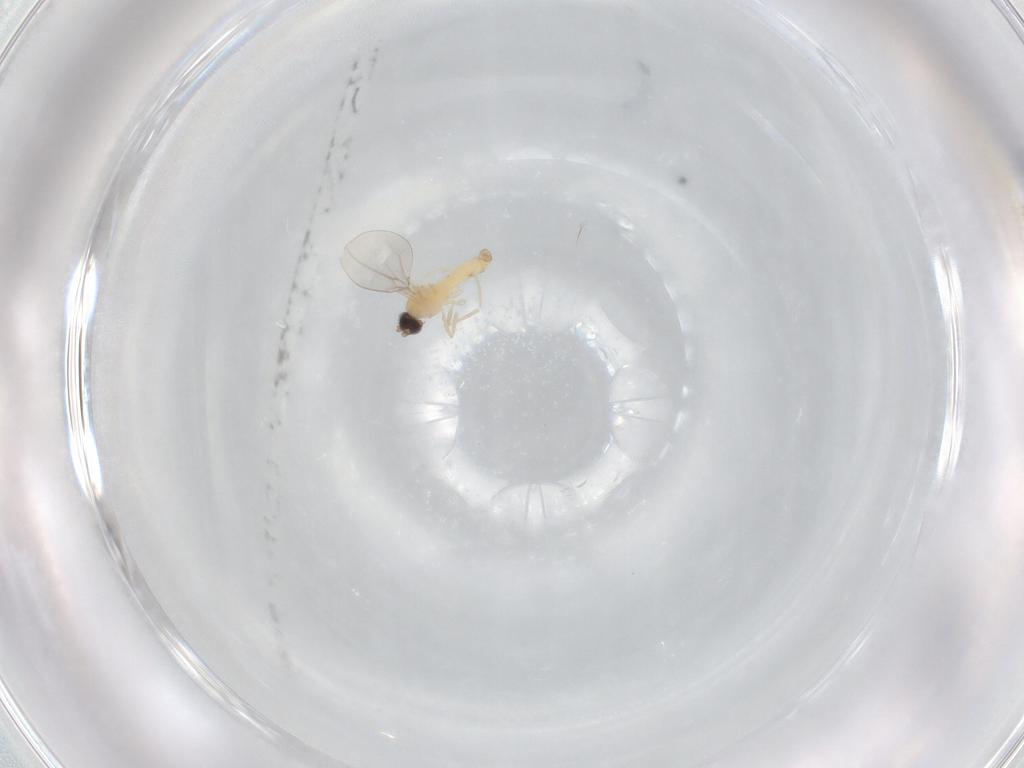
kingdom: Animalia
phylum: Arthropoda
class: Insecta
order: Diptera
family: Cecidomyiidae
